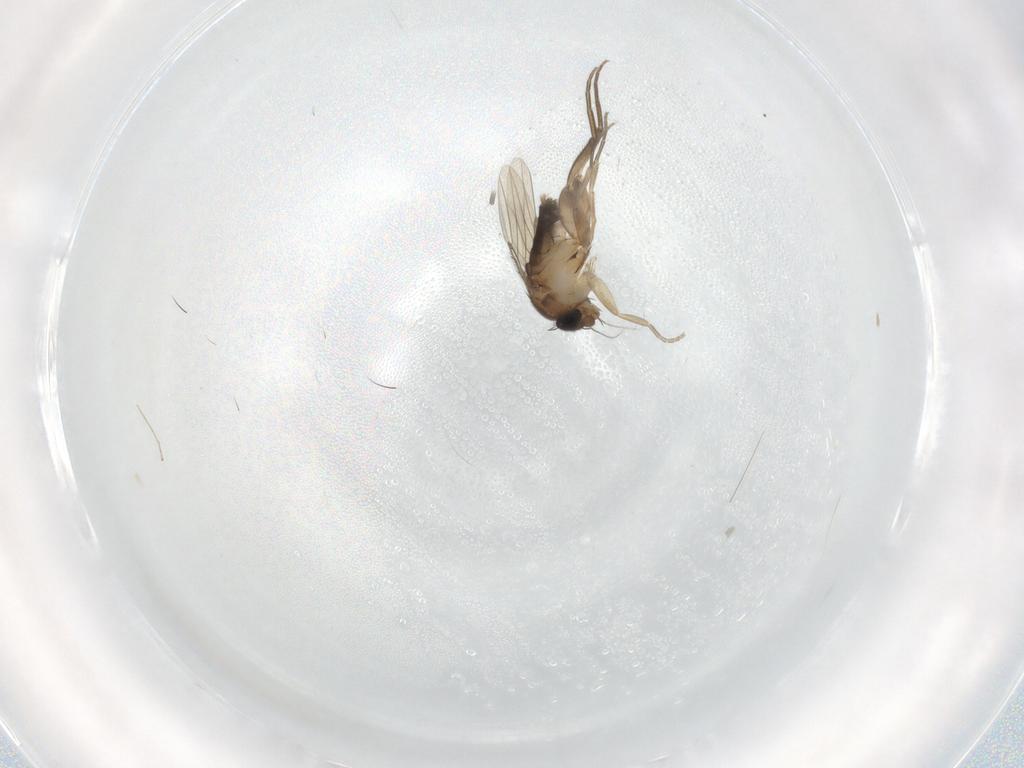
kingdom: Animalia
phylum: Arthropoda
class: Insecta
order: Diptera
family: Phoridae
